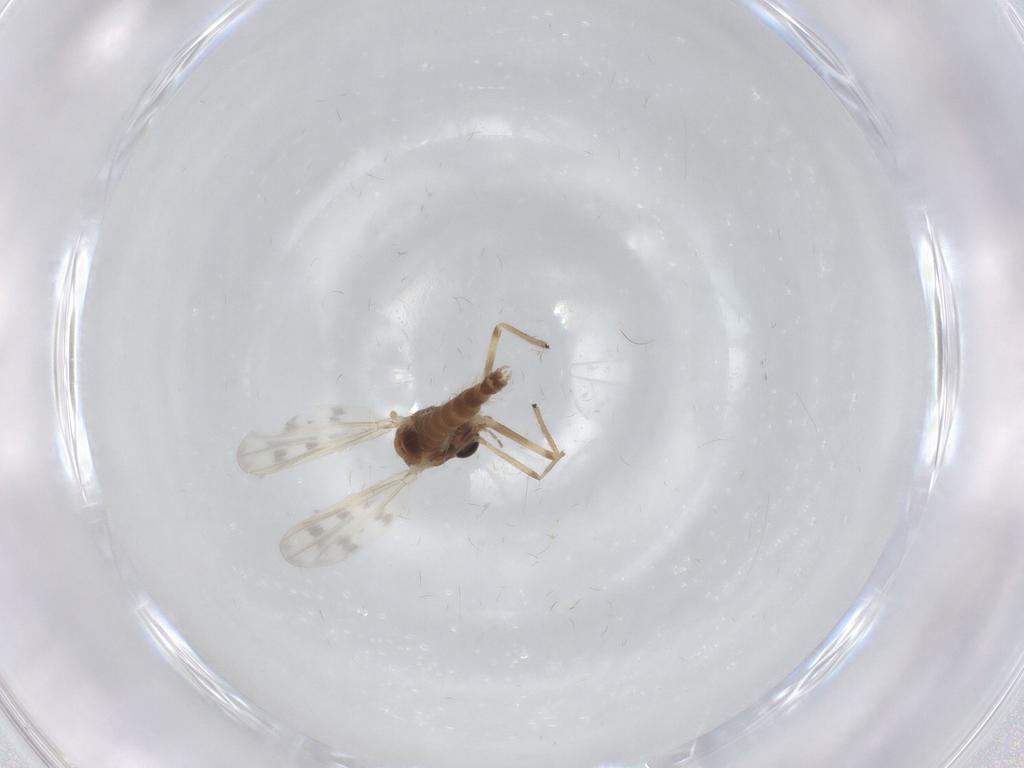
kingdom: Animalia
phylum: Arthropoda
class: Insecta
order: Diptera
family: Chironomidae
